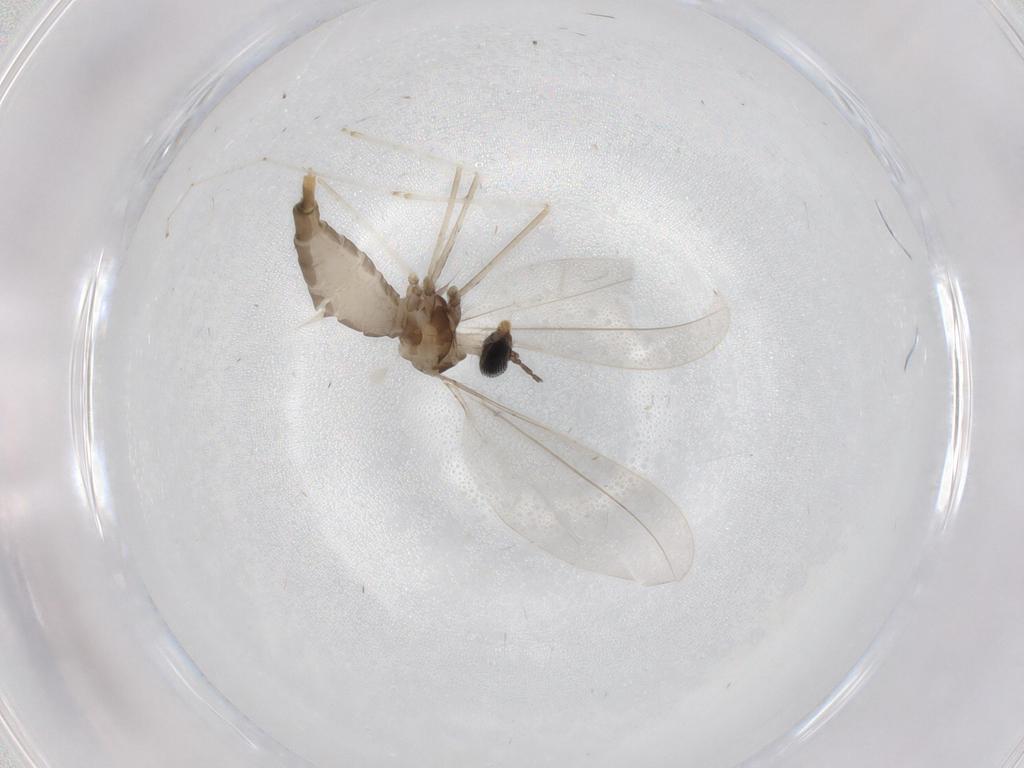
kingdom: Animalia
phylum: Arthropoda
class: Insecta
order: Diptera
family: Cecidomyiidae
